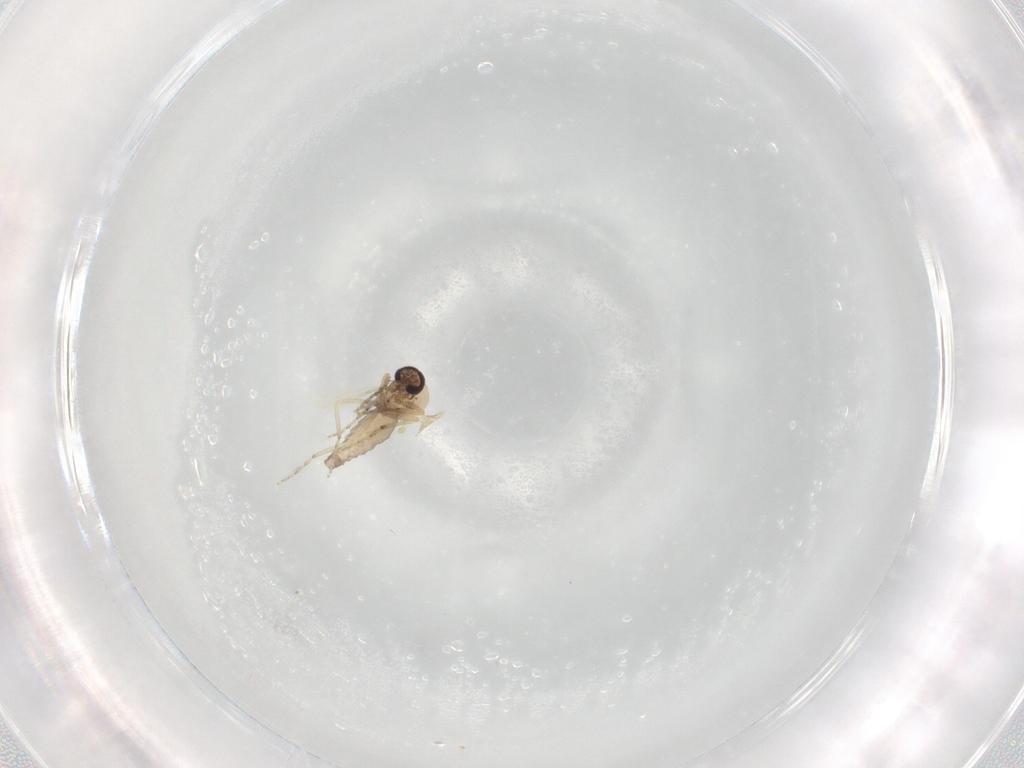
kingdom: Animalia
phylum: Arthropoda
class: Insecta
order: Diptera
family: Ceratopogonidae
